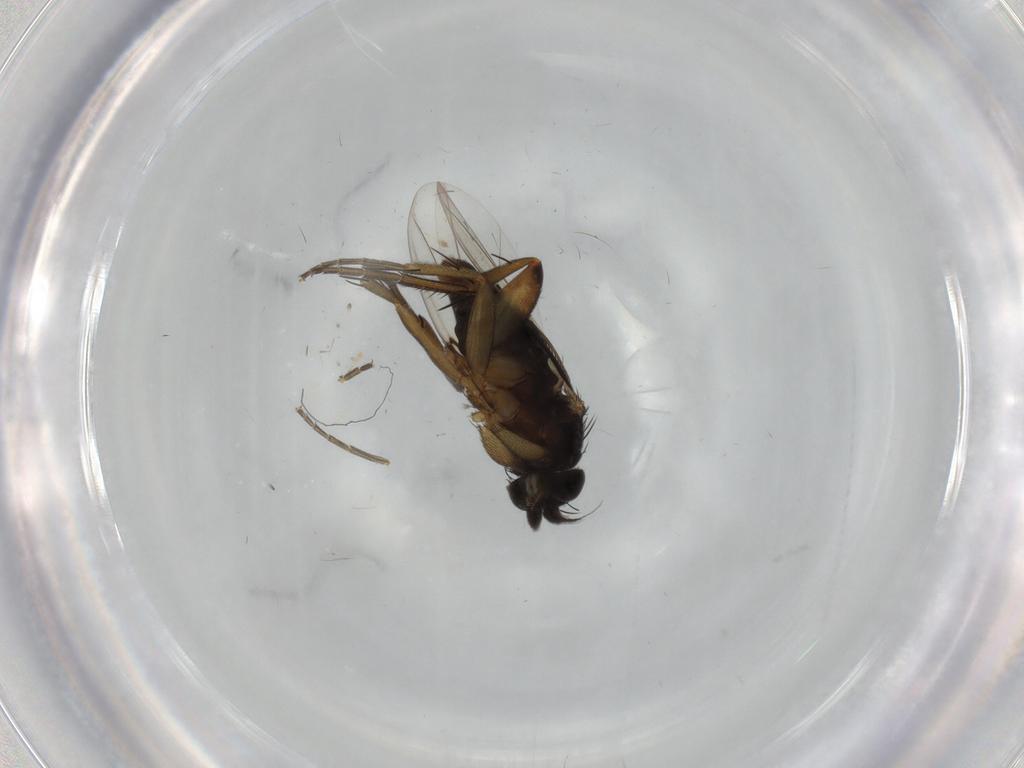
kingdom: Animalia
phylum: Arthropoda
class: Insecta
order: Diptera
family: Phoridae
